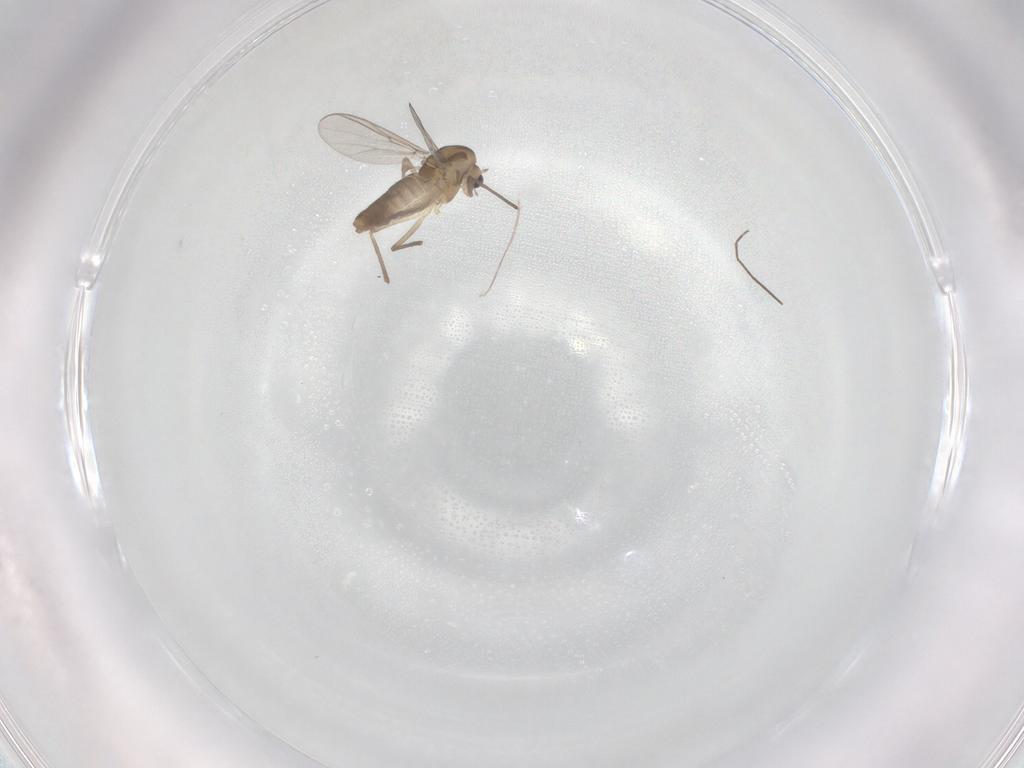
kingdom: Animalia
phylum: Arthropoda
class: Insecta
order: Diptera
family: Chironomidae
